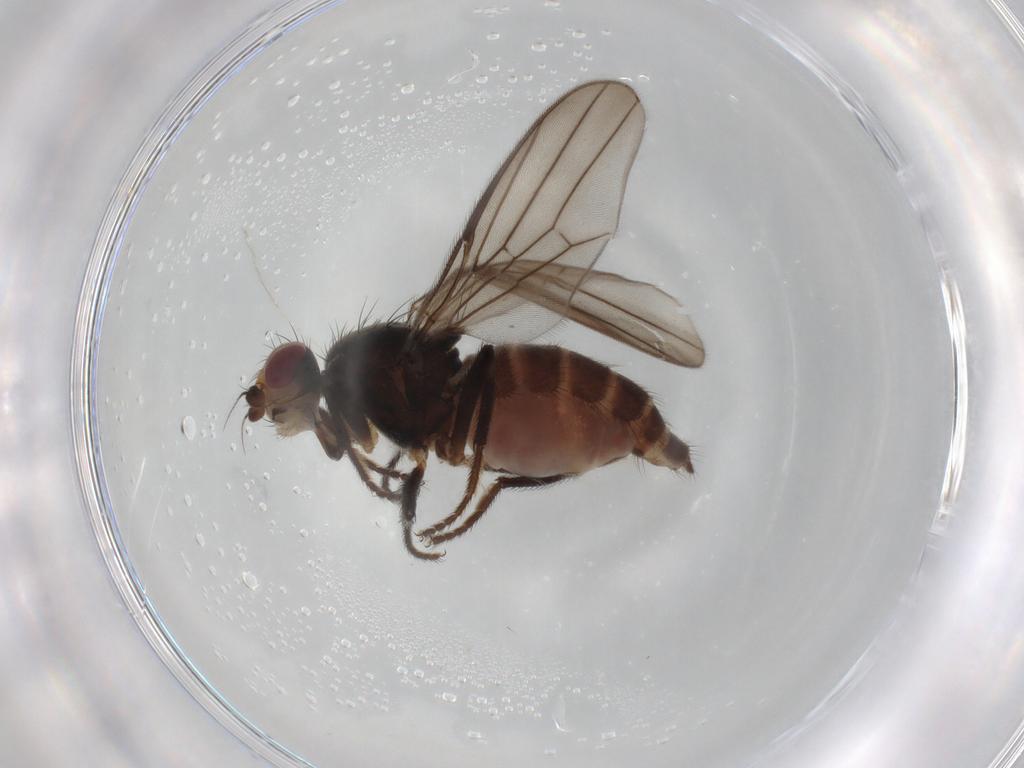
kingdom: Animalia
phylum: Arthropoda
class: Insecta
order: Diptera
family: Chloropidae
